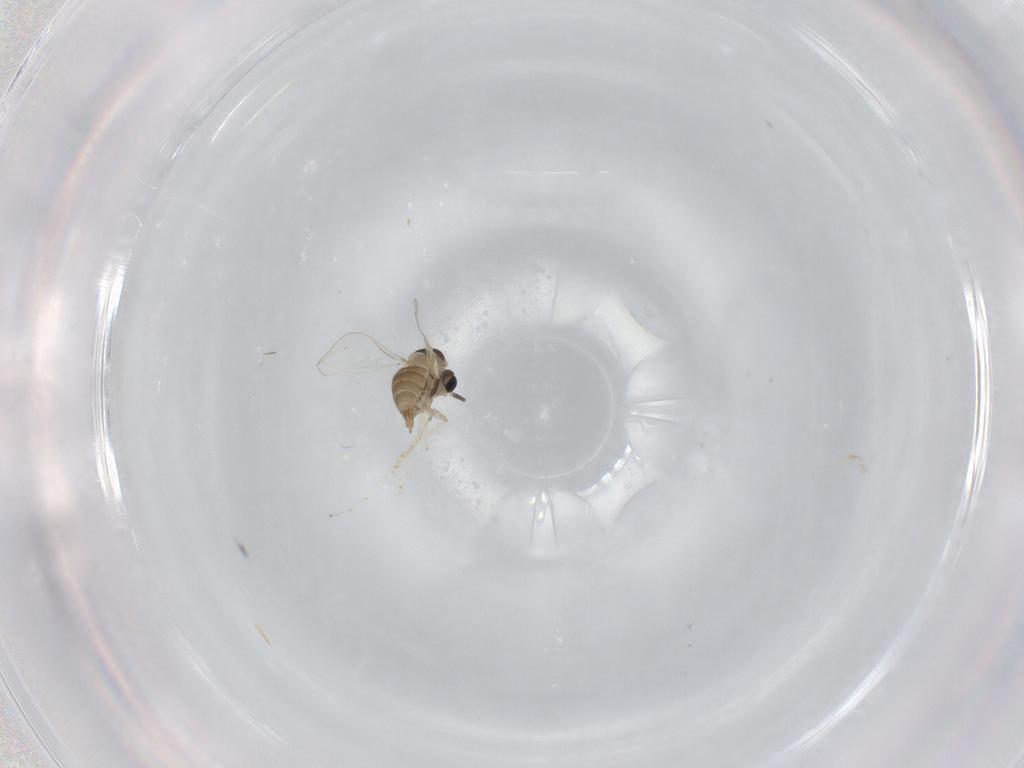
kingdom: Animalia
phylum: Arthropoda
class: Insecta
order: Diptera
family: Cecidomyiidae
